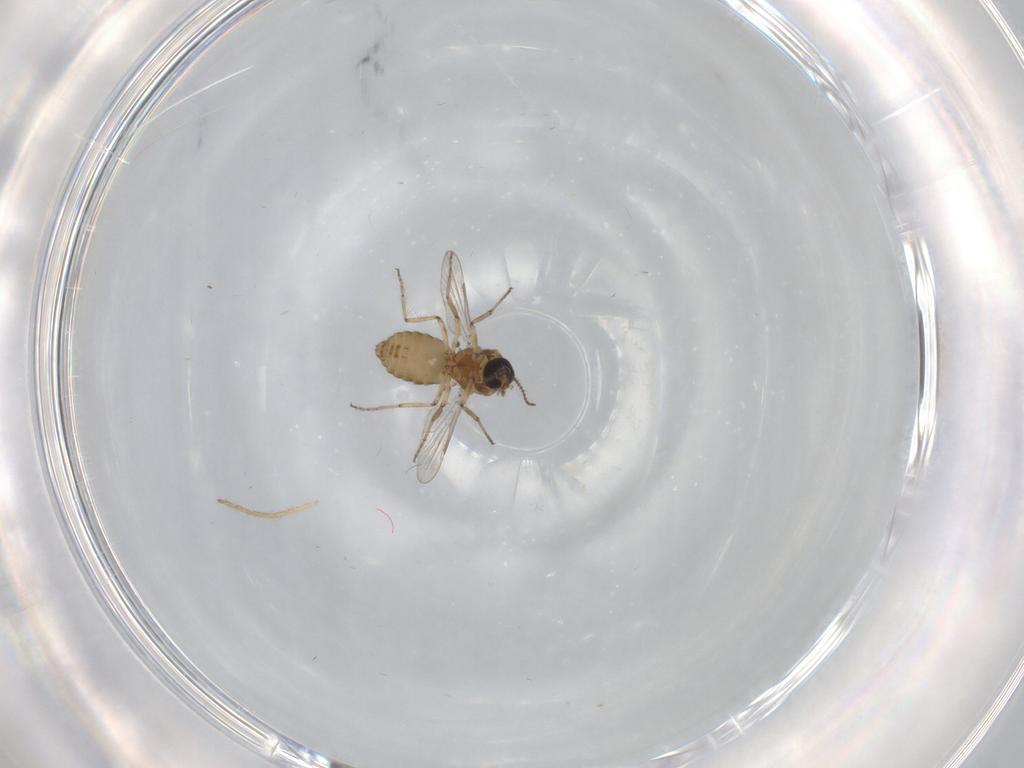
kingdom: Animalia
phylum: Arthropoda
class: Insecta
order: Diptera
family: Ceratopogonidae
